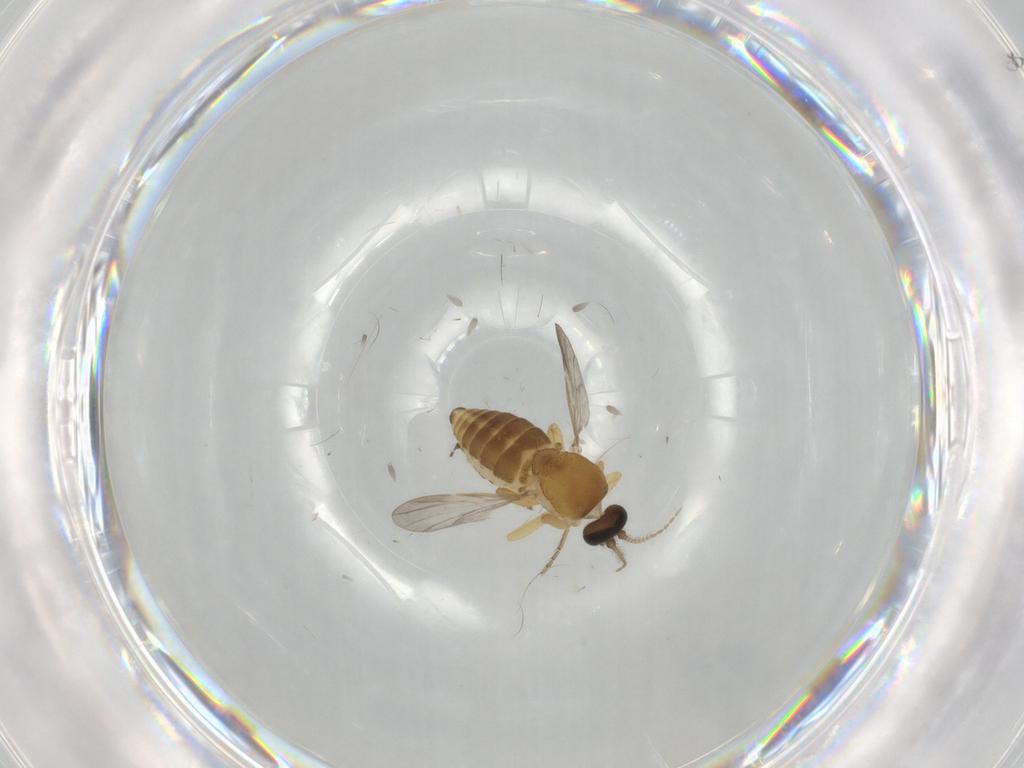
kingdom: Animalia
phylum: Arthropoda
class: Insecta
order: Diptera
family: Ceratopogonidae
